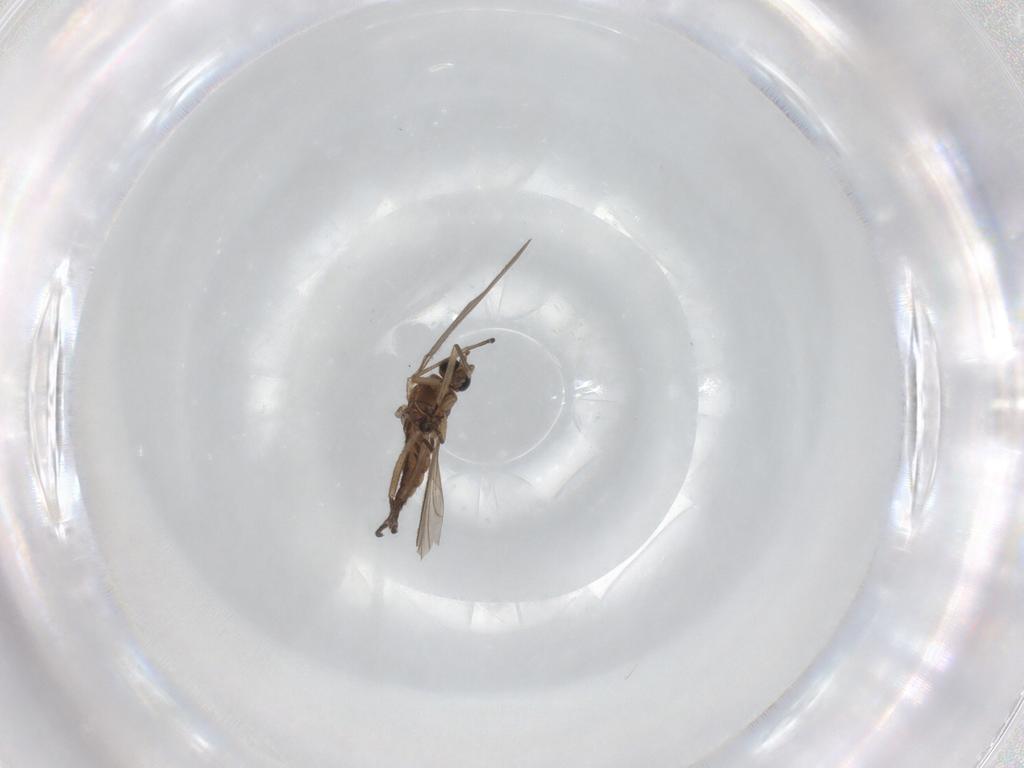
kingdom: Animalia
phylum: Arthropoda
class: Insecta
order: Diptera
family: Sciaridae
